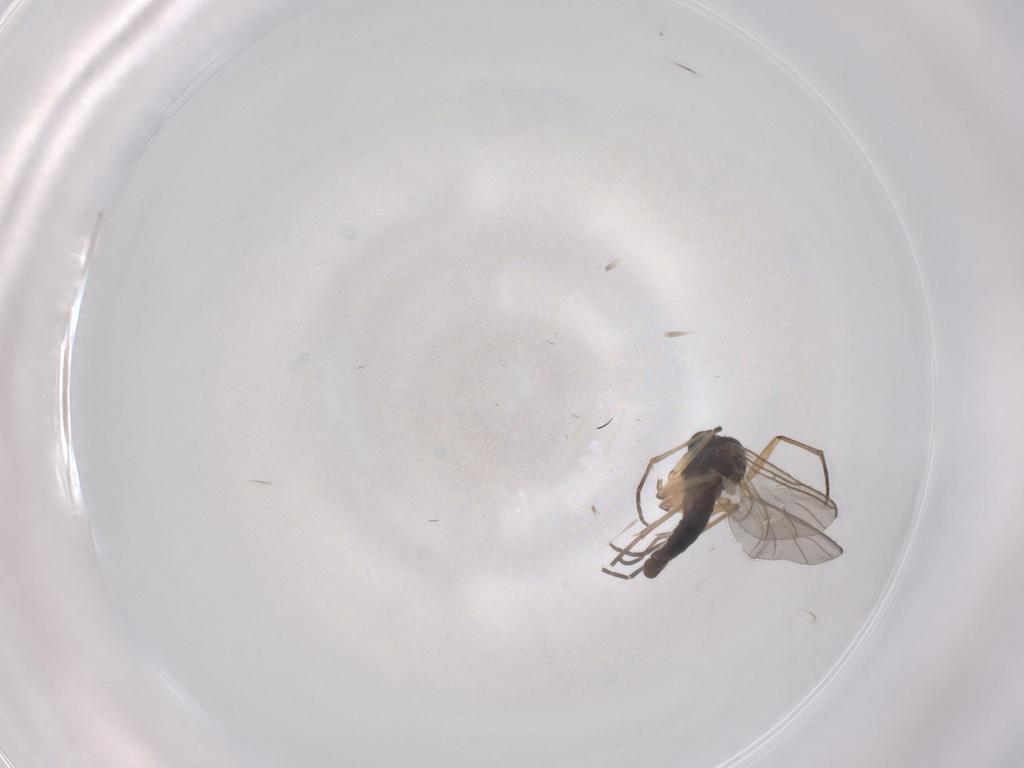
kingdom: Animalia
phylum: Arthropoda
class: Insecta
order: Diptera
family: Sciaridae
